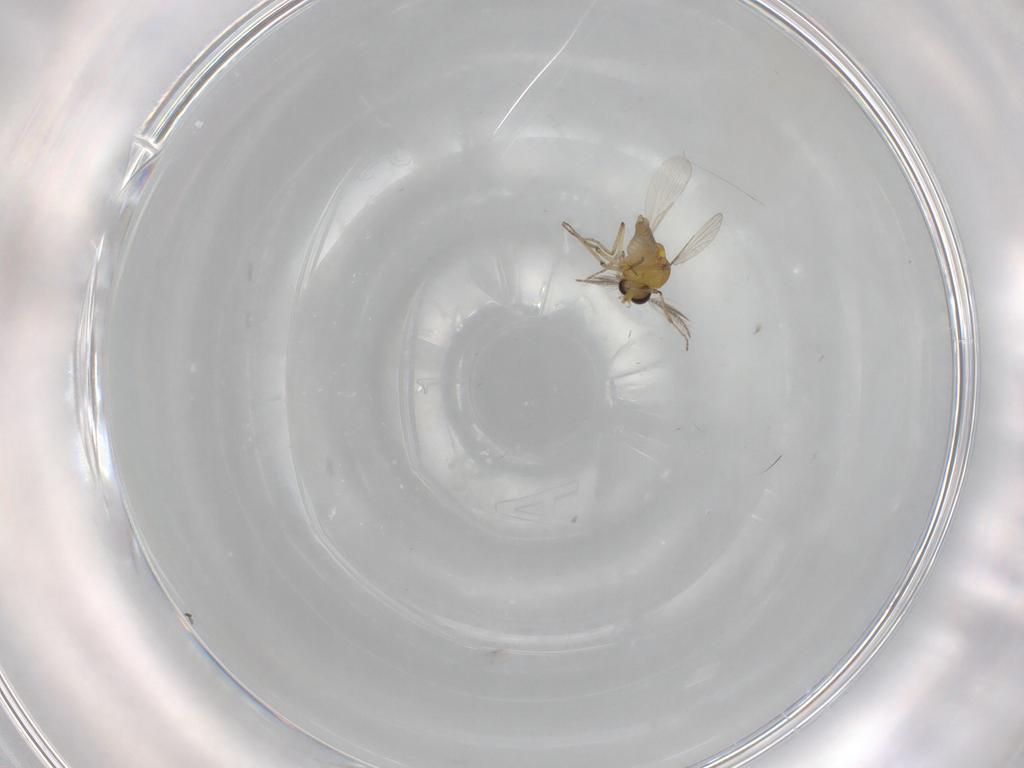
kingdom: Animalia
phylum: Arthropoda
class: Insecta
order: Diptera
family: Ceratopogonidae
